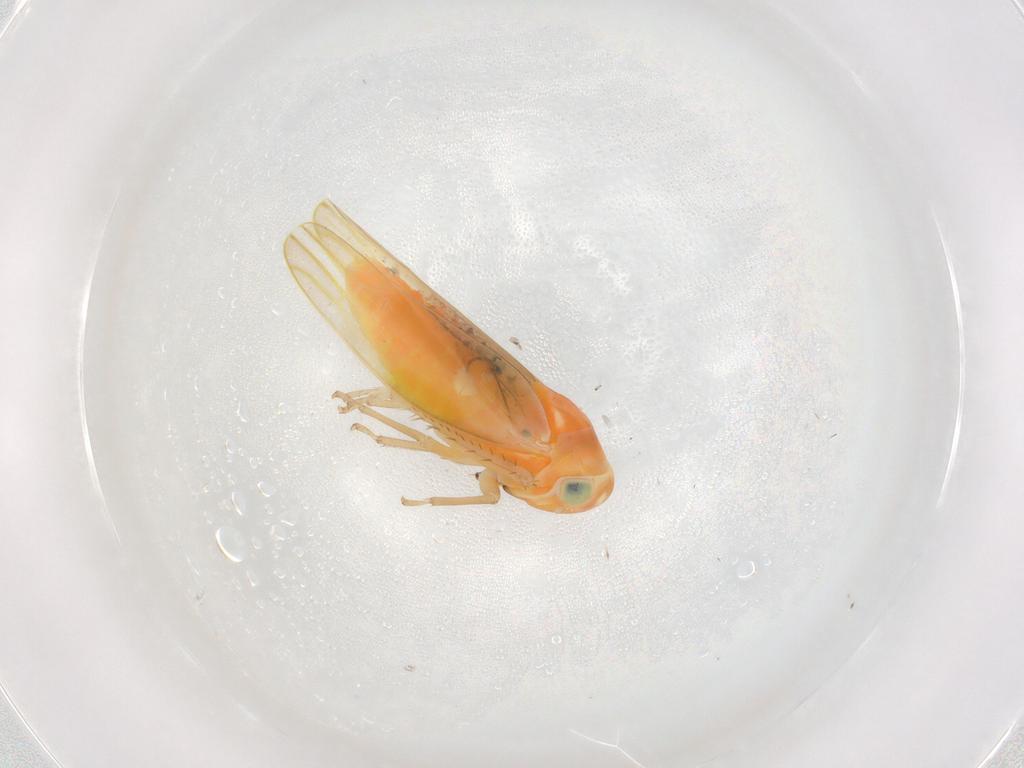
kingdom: Animalia
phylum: Arthropoda
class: Insecta
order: Hemiptera
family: Cicadellidae
